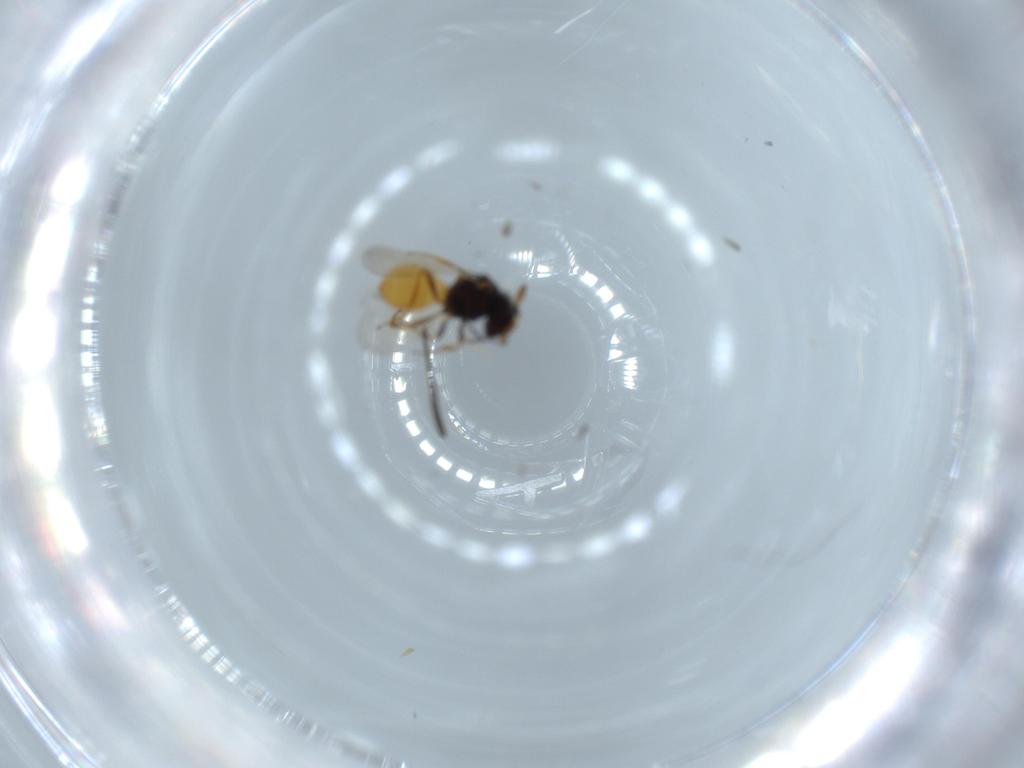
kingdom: Animalia
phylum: Arthropoda
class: Insecta
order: Hymenoptera
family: Scelionidae
